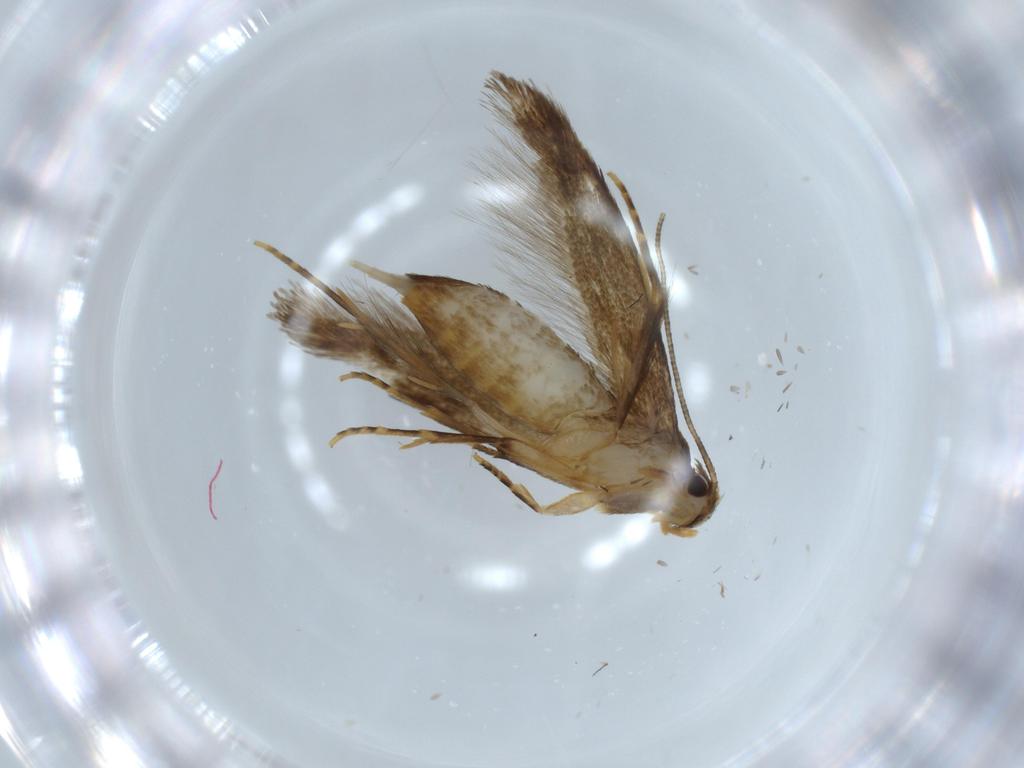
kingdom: Animalia
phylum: Arthropoda
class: Insecta
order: Lepidoptera
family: Tineidae
